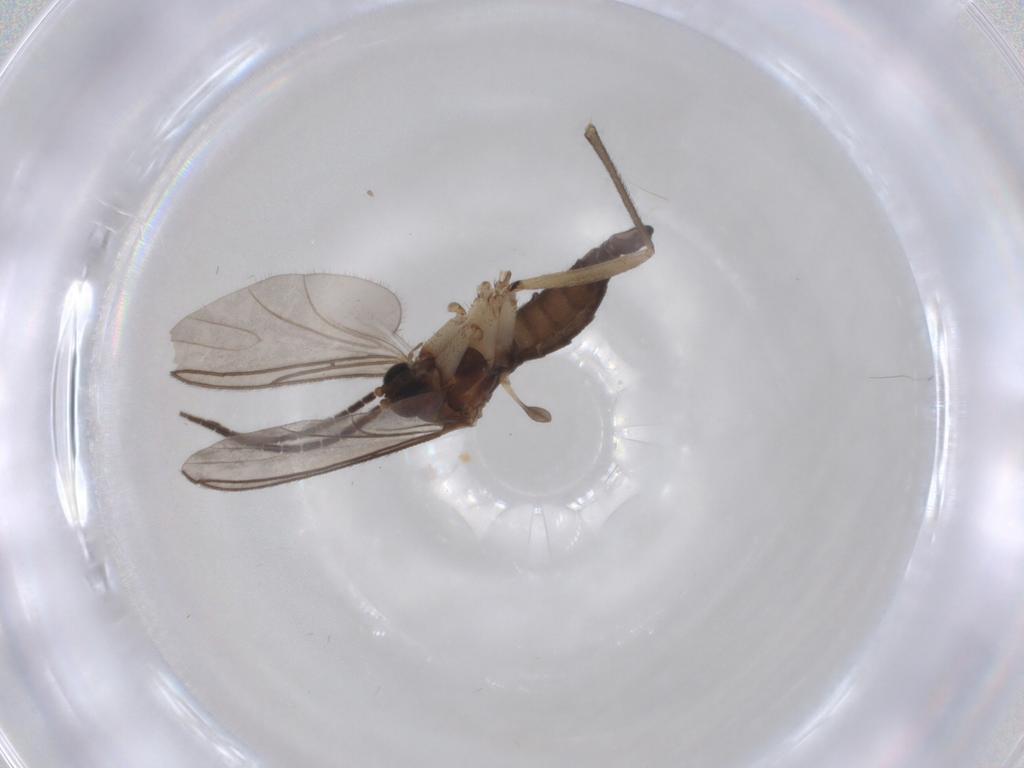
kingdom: Animalia
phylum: Arthropoda
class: Insecta
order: Diptera
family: Sciaridae
